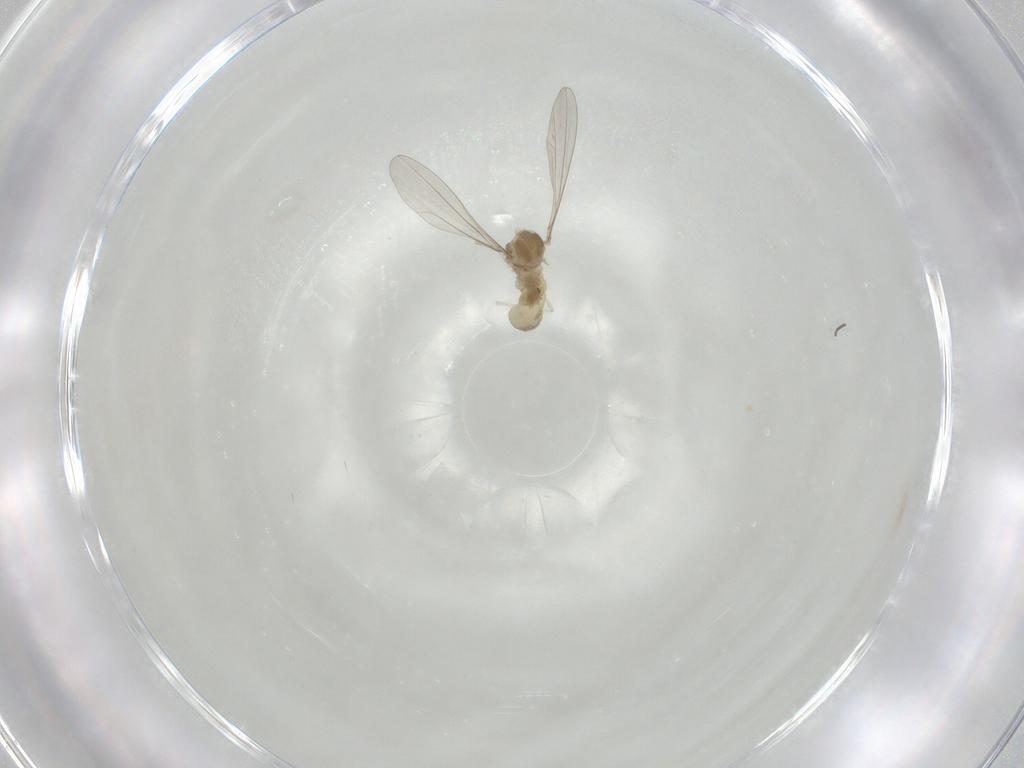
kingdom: Animalia
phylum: Arthropoda
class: Insecta
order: Diptera
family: Cecidomyiidae
